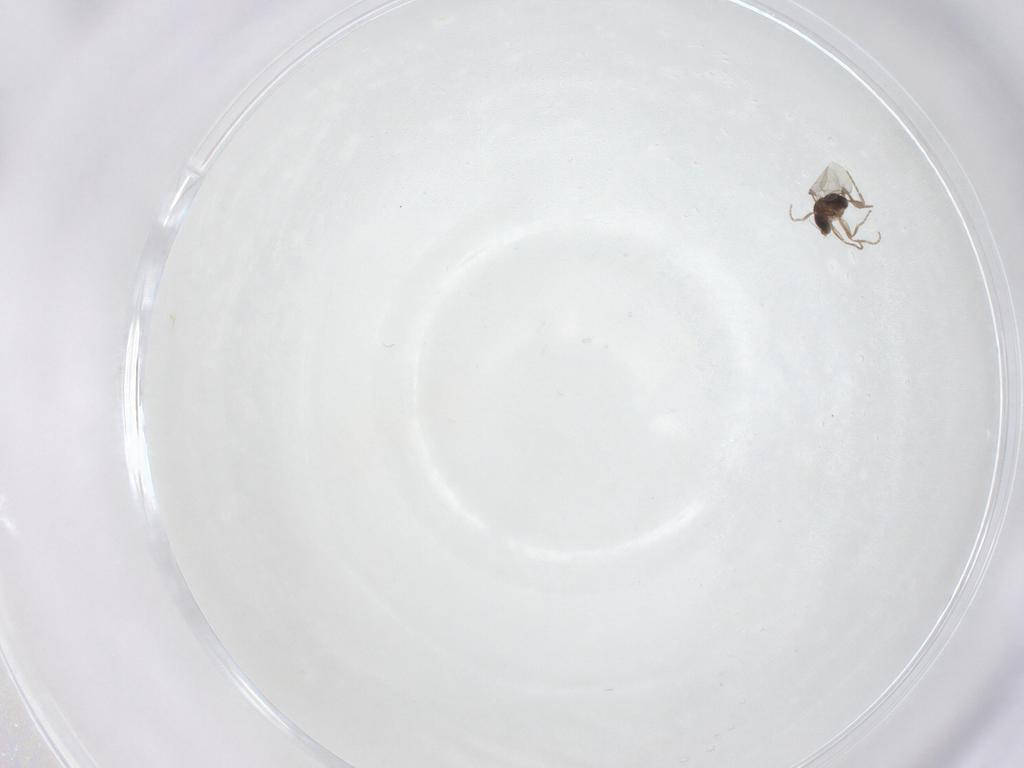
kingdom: Animalia
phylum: Arthropoda
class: Insecta
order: Diptera
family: Phoridae
